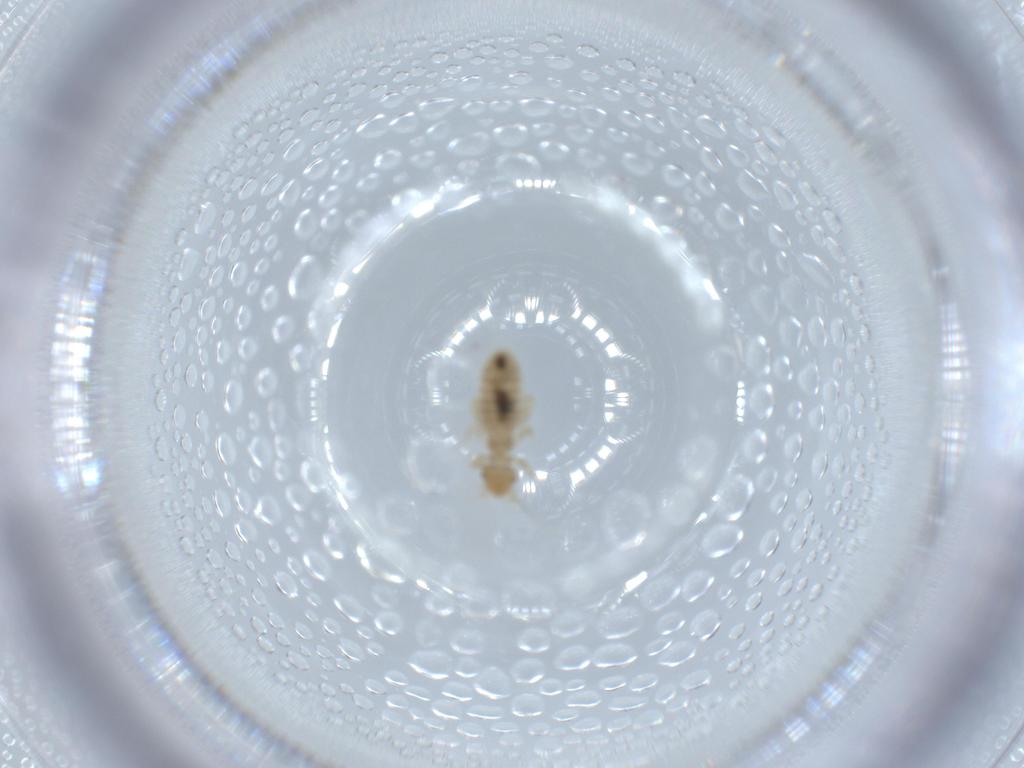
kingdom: Animalia
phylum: Arthropoda
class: Insecta
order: Psocodea
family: Liposcelididae
